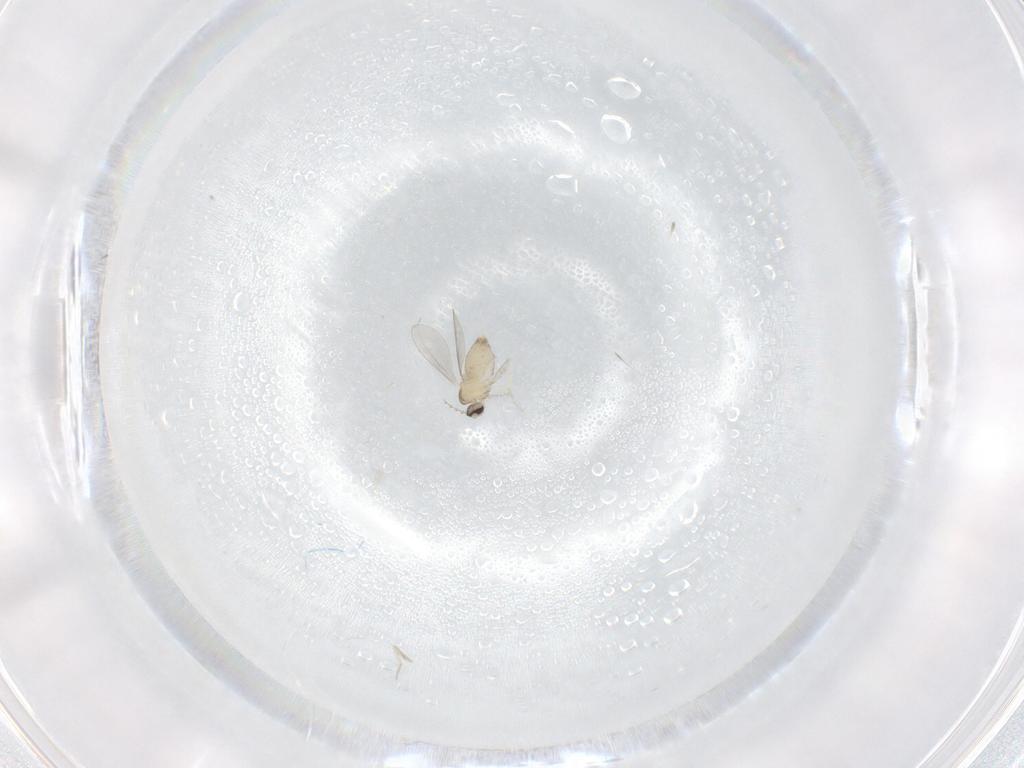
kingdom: Animalia
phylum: Arthropoda
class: Insecta
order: Diptera
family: Cecidomyiidae
